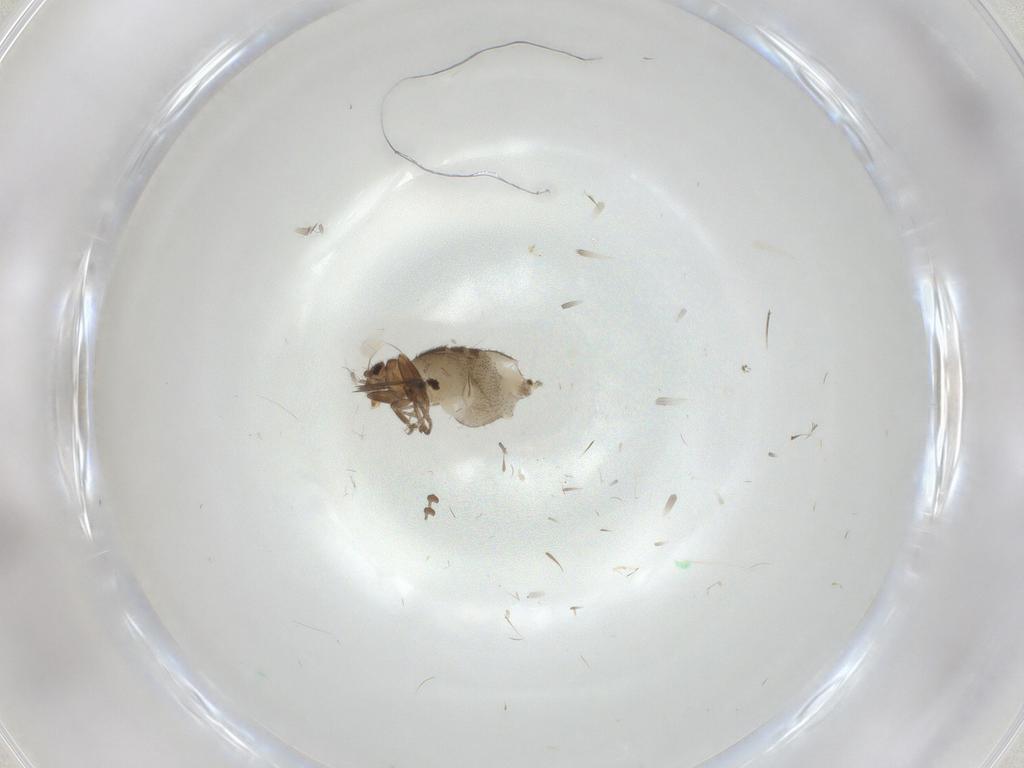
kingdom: Animalia
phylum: Arthropoda
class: Insecta
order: Diptera
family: Psychodidae
